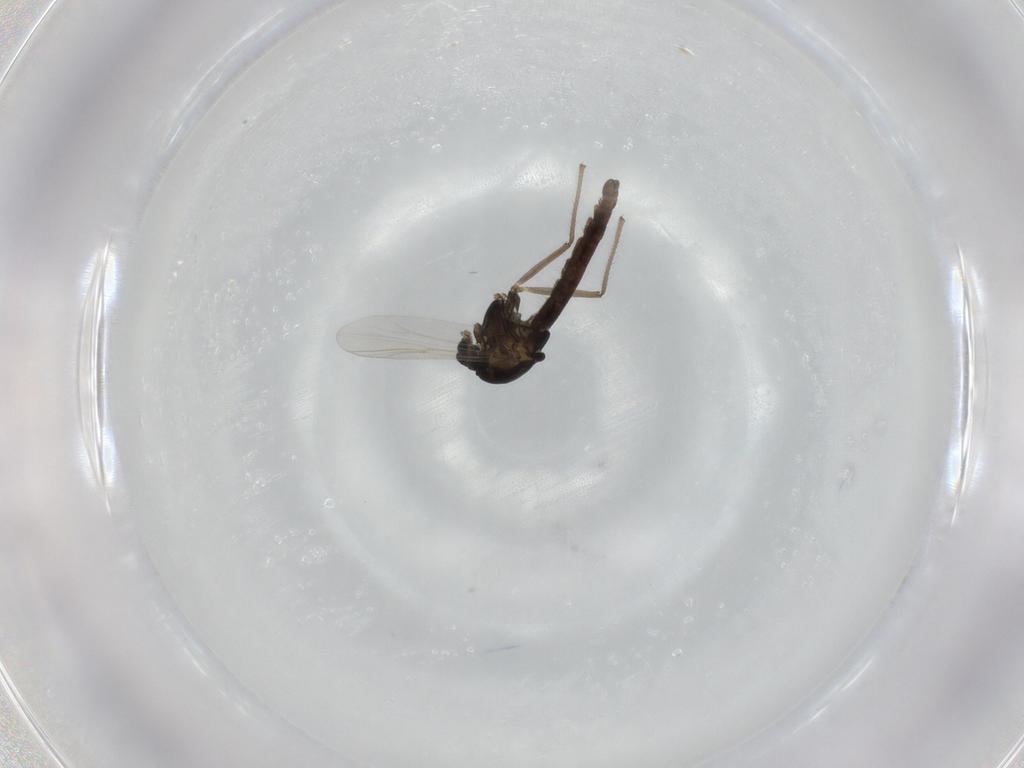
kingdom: Animalia
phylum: Arthropoda
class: Insecta
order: Diptera
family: Chironomidae
